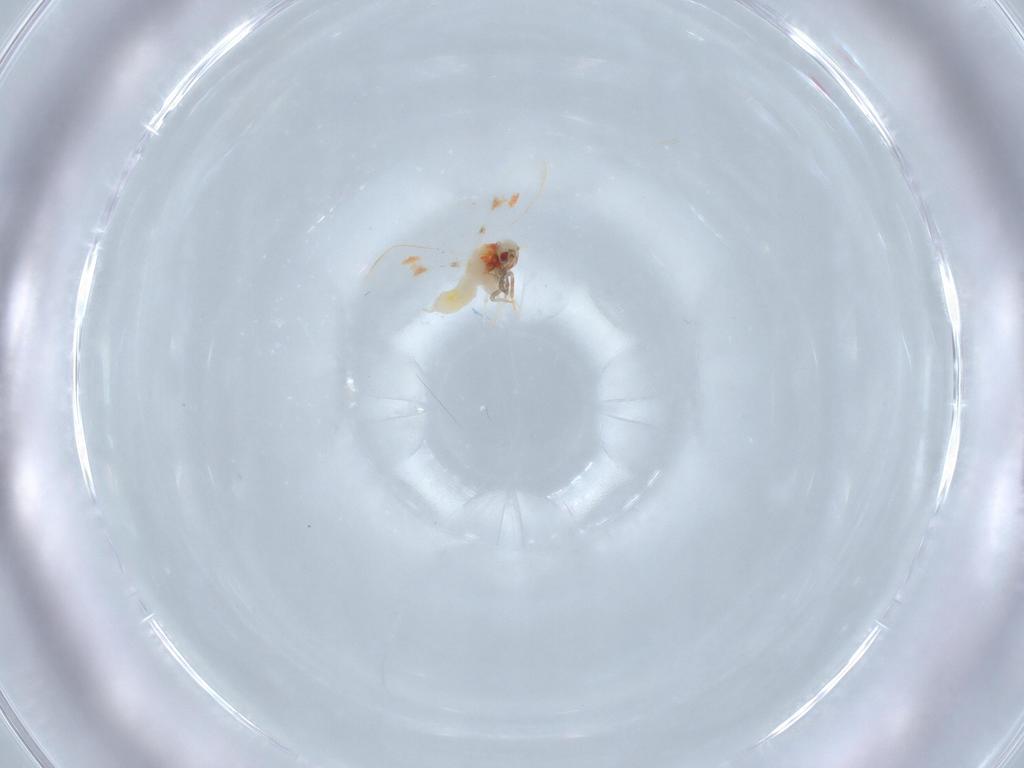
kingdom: Animalia
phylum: Arthropoda
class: Insecta
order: Hemiptera
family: Aleyrodidae
